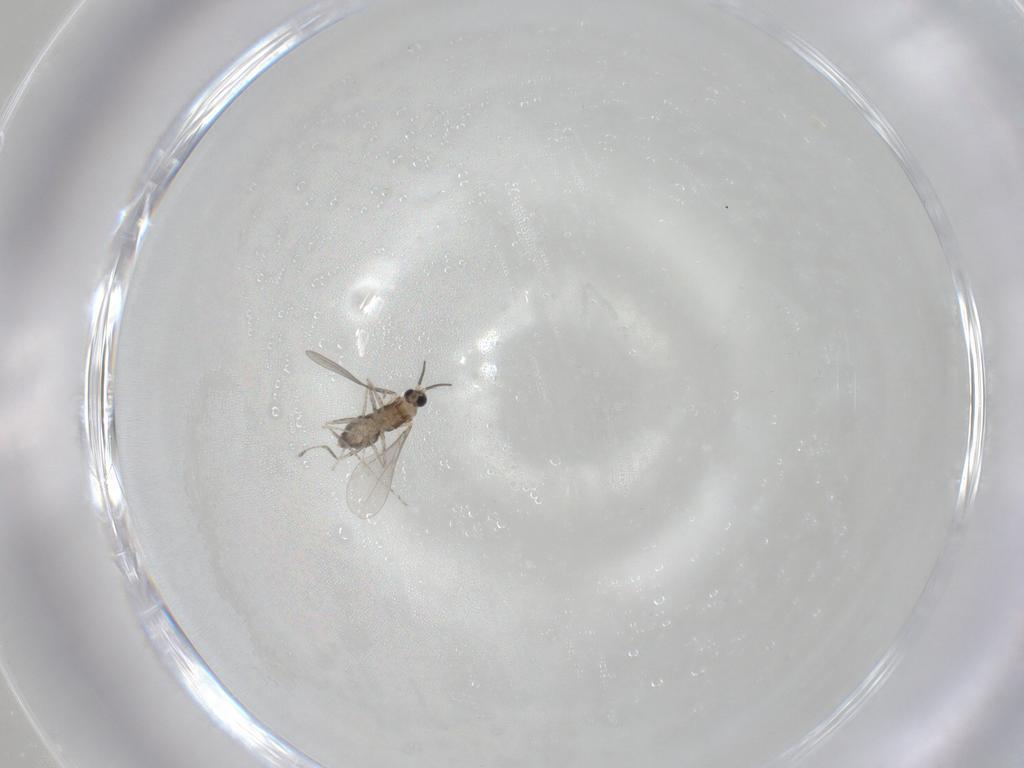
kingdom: Animalia
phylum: Arthropoda
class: Insecta
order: Diptera
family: Cecidomyiidae
